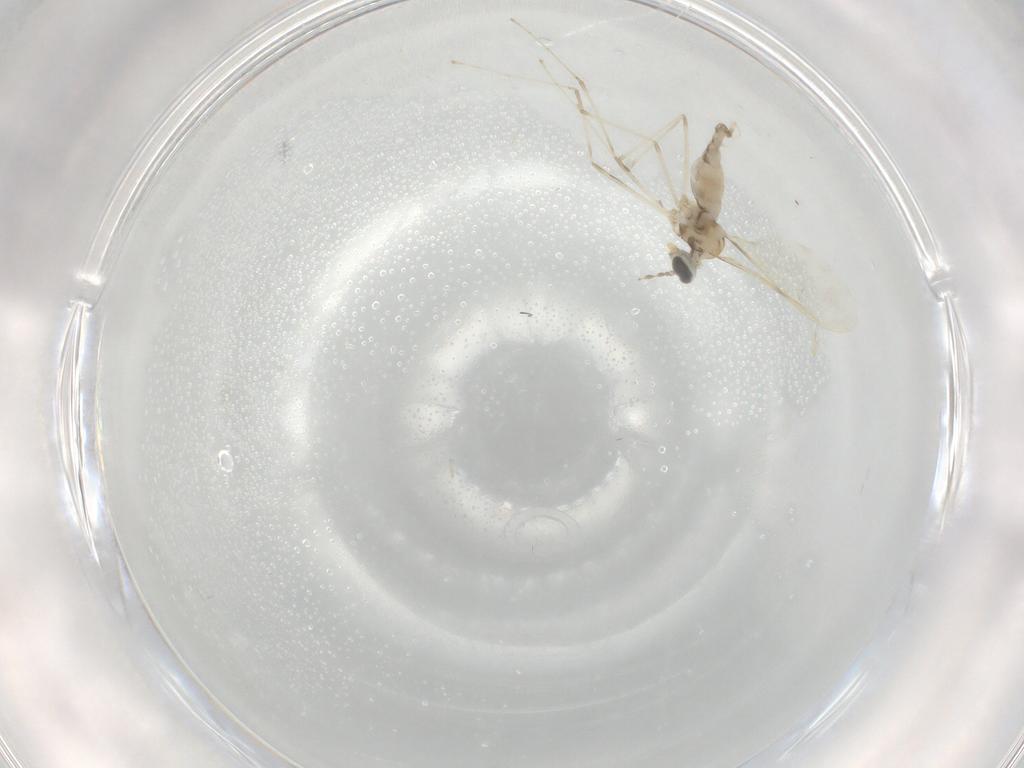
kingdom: Animalia
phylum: Arthropoda
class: Insecta
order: Diptera
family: Cecidomyiidae
